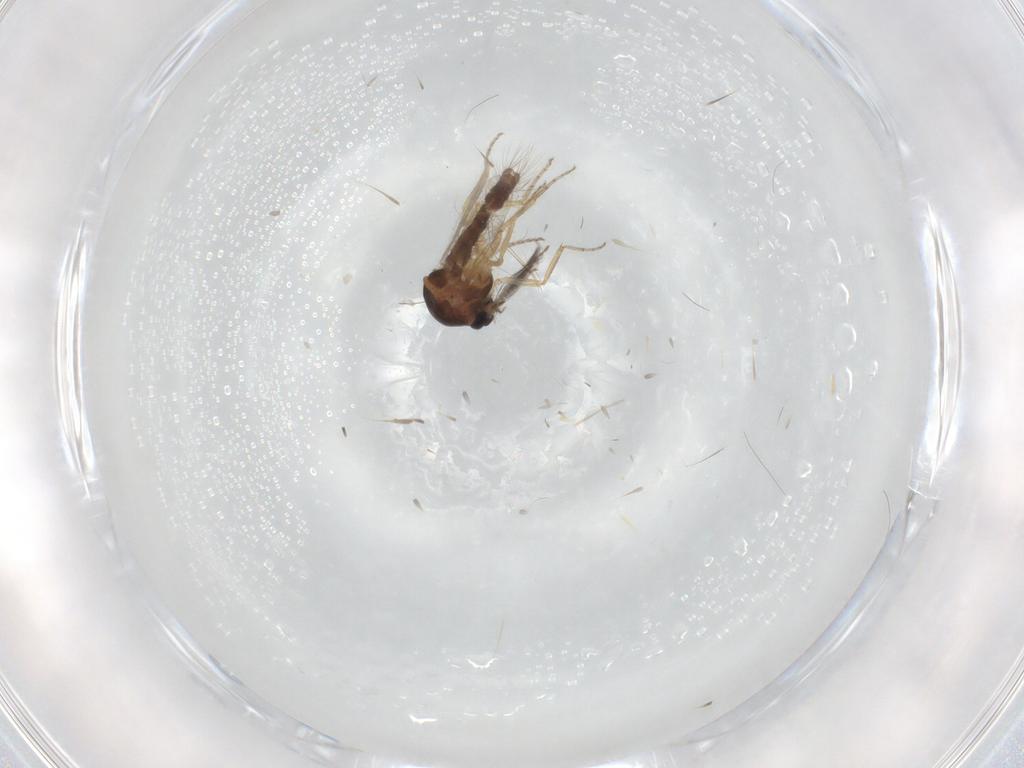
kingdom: Animalia
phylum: Arthropoda
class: Insecta
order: Diptera
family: Ceratopogonidae
